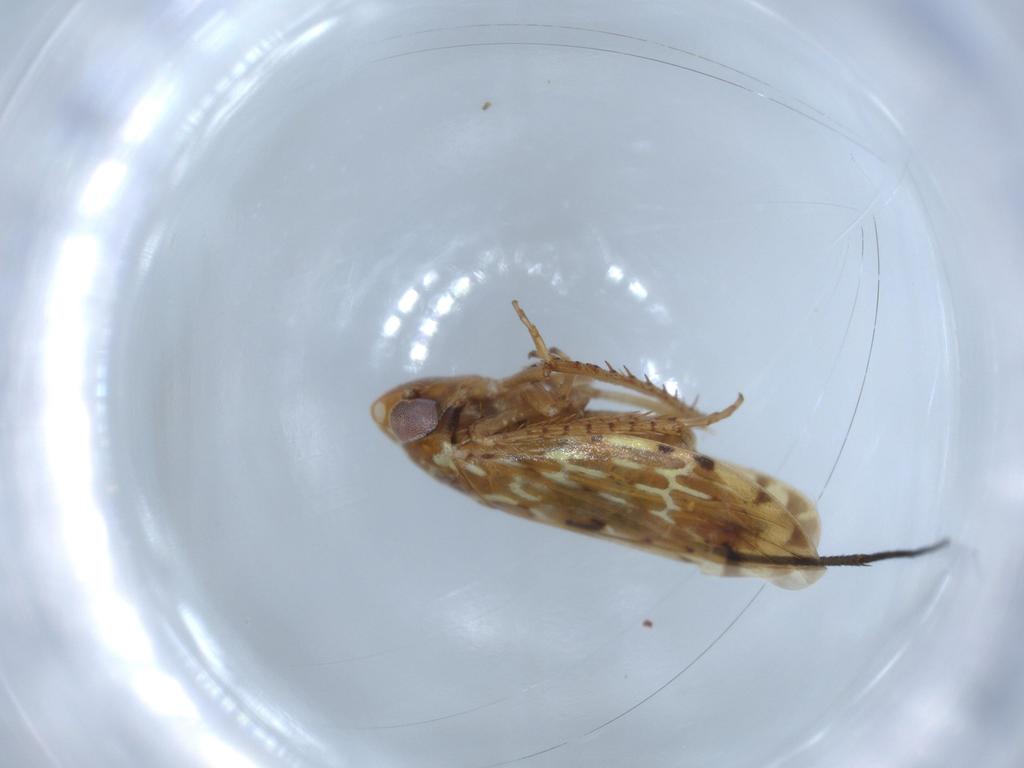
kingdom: Animalia
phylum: Arthropoda
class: Insecta
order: Hemiptera
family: Cicadellidae
